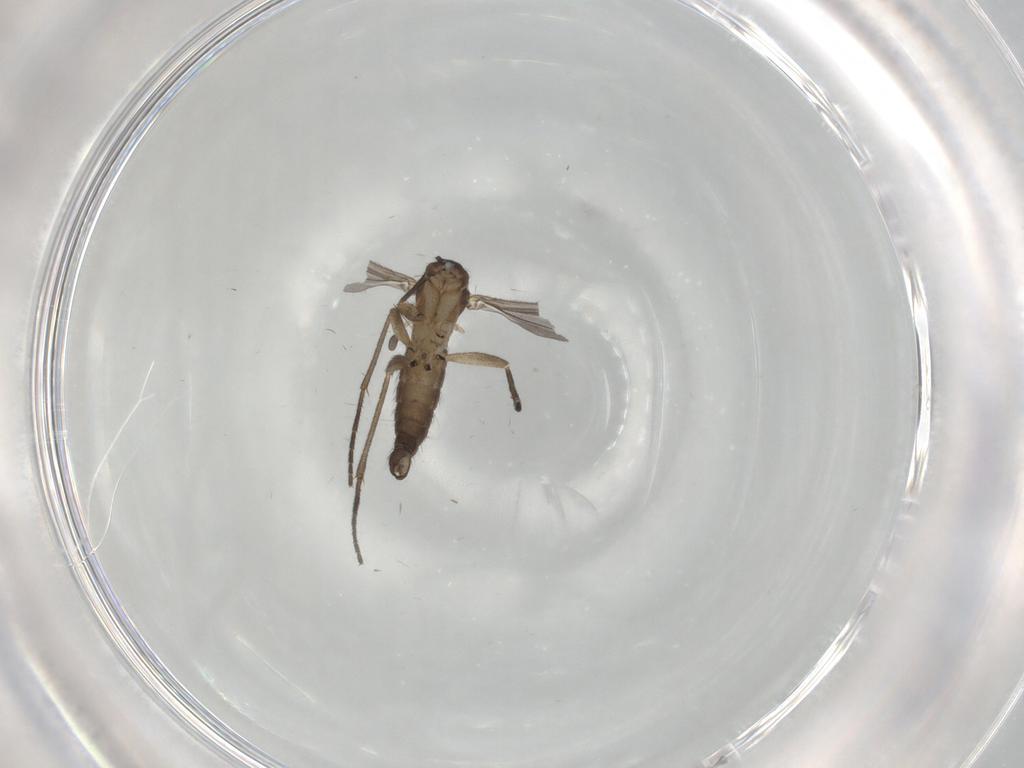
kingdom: Animalia
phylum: Arthropoda
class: Insecta
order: Diptera
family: Sciaridae
